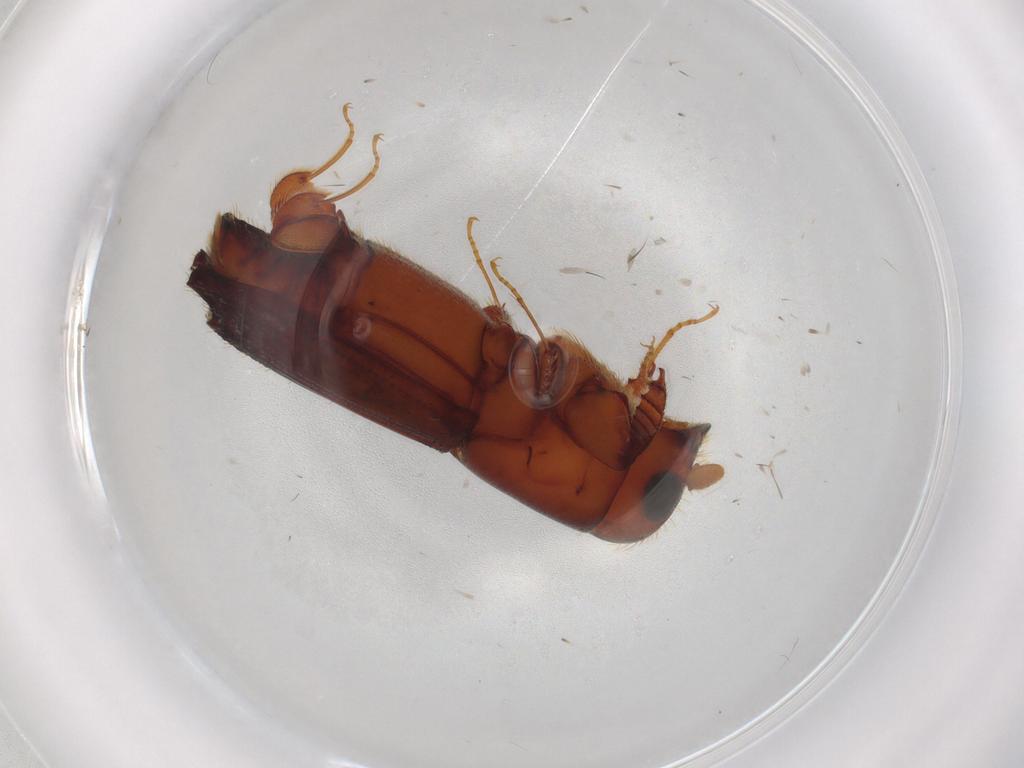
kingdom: Animalia
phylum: Arthropoda
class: Insecta
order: Coleoptera
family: Curculionidae
